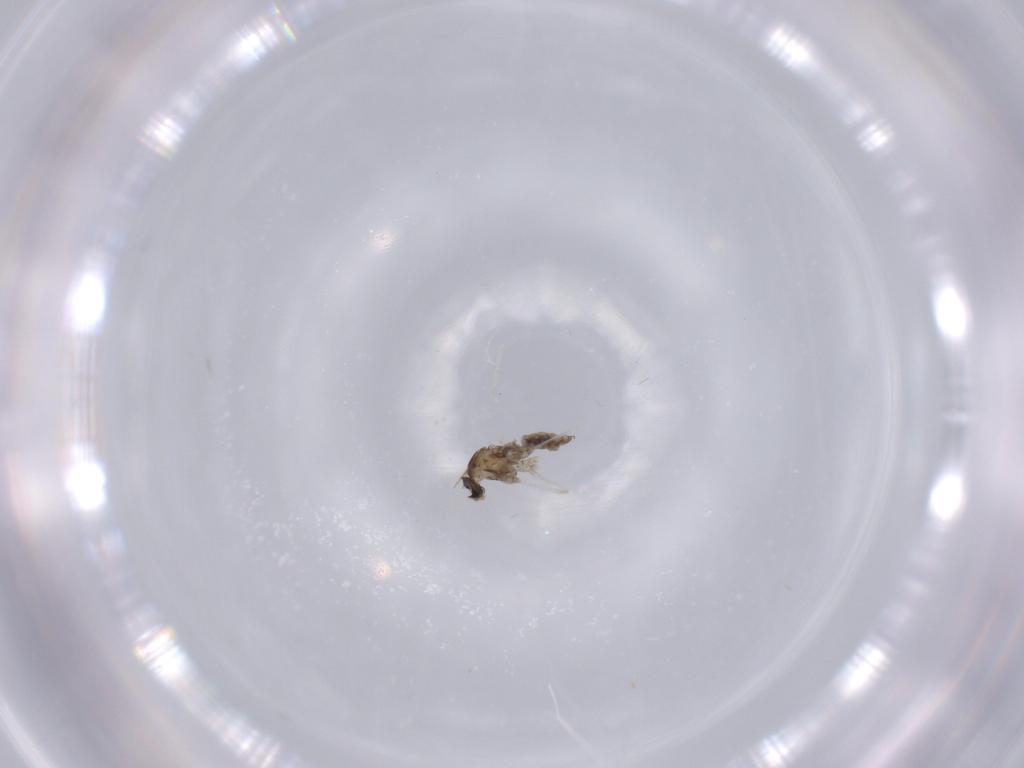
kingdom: Animalia
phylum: Arthropoda
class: Insecta
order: Diptera
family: Cecidomyiidae
